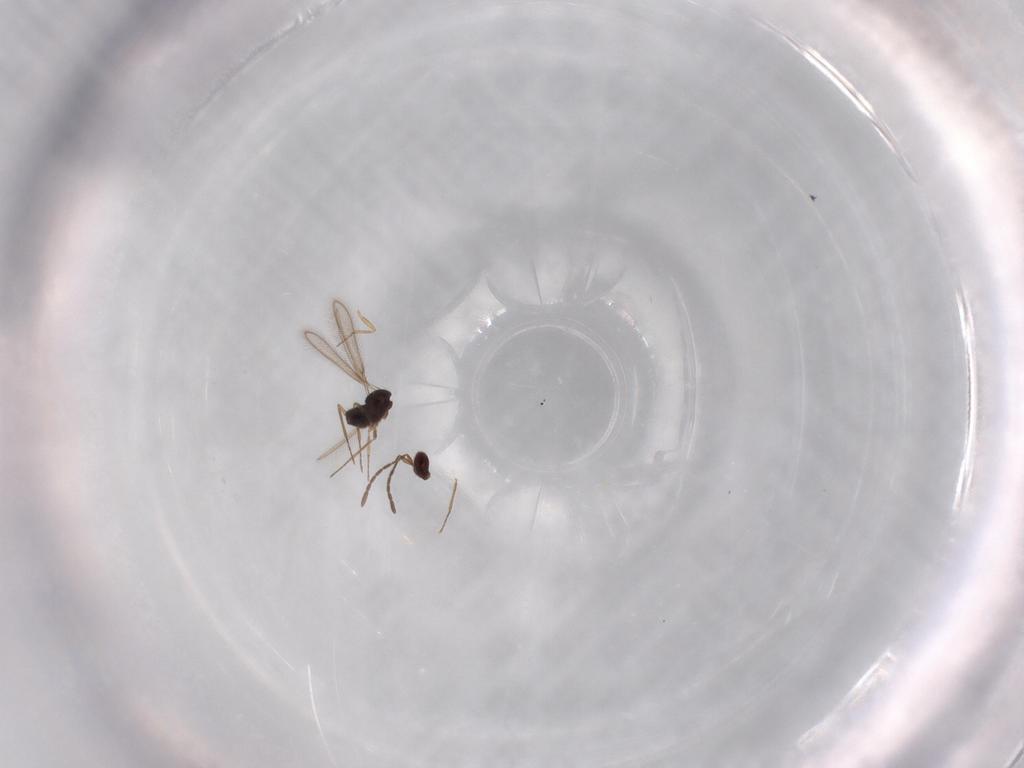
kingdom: Animalia
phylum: Arthropoda
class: Insecta
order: Hymenoptera
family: Mymaridae
